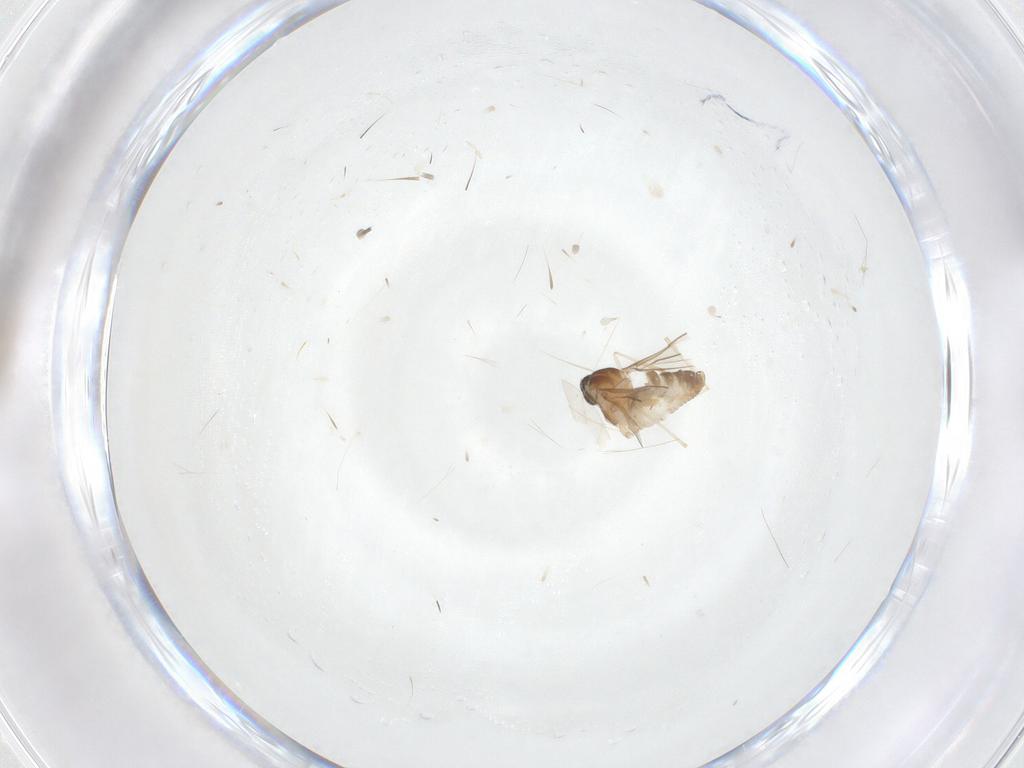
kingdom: Animalia
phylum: Arthropoda
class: Insecta
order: Diptera
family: Cecidomyiidae
